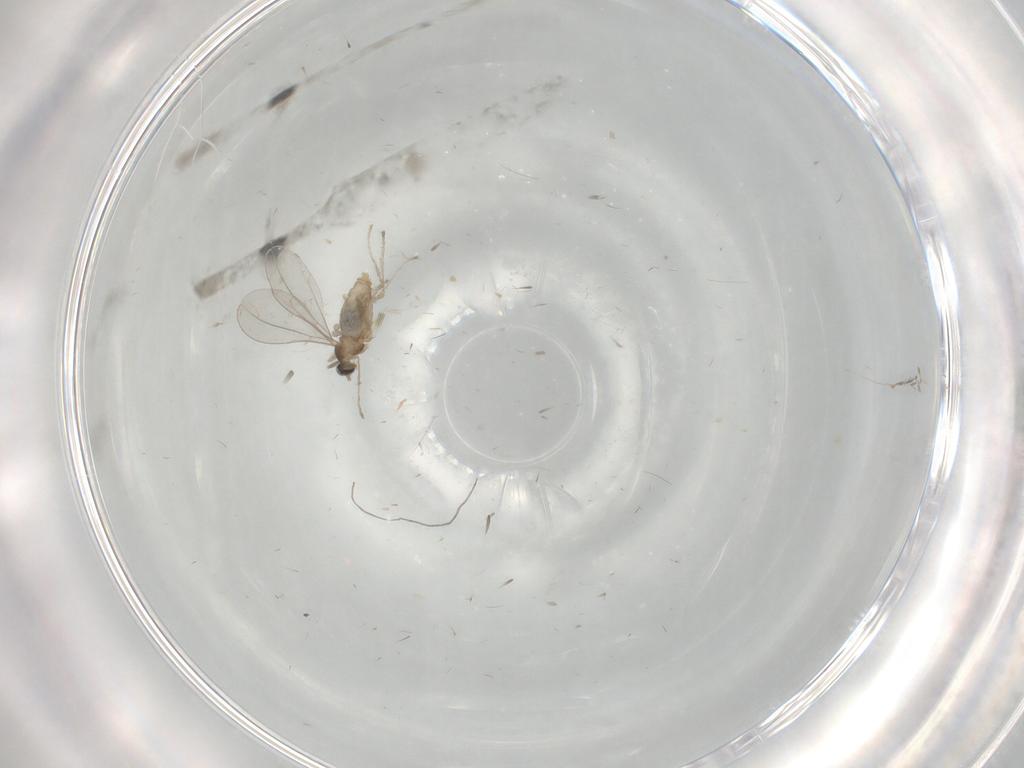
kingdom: Animalia
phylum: Arthropoda
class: Insecta
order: Diptera
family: Cecidomyiidae
